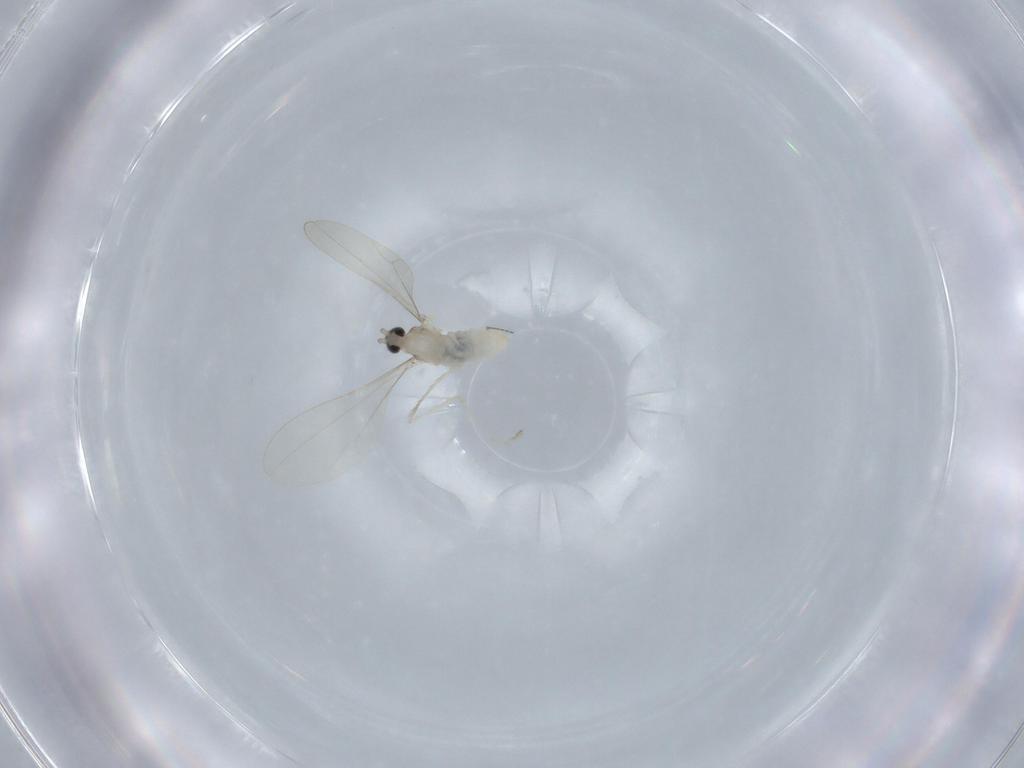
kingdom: Animalia
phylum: Arthropoda
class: Insecta
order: Diptera
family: Cecidomyiidae
